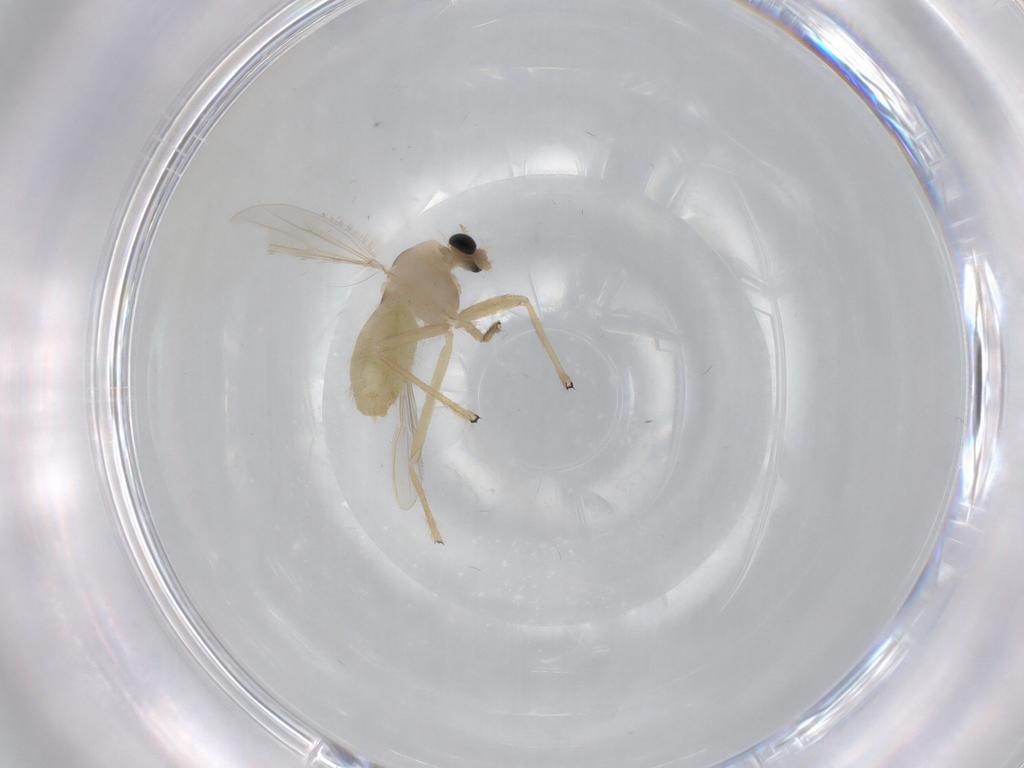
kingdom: Animalia
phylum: Arthropoda
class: Insecta
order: Diptera
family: Chironomidae
